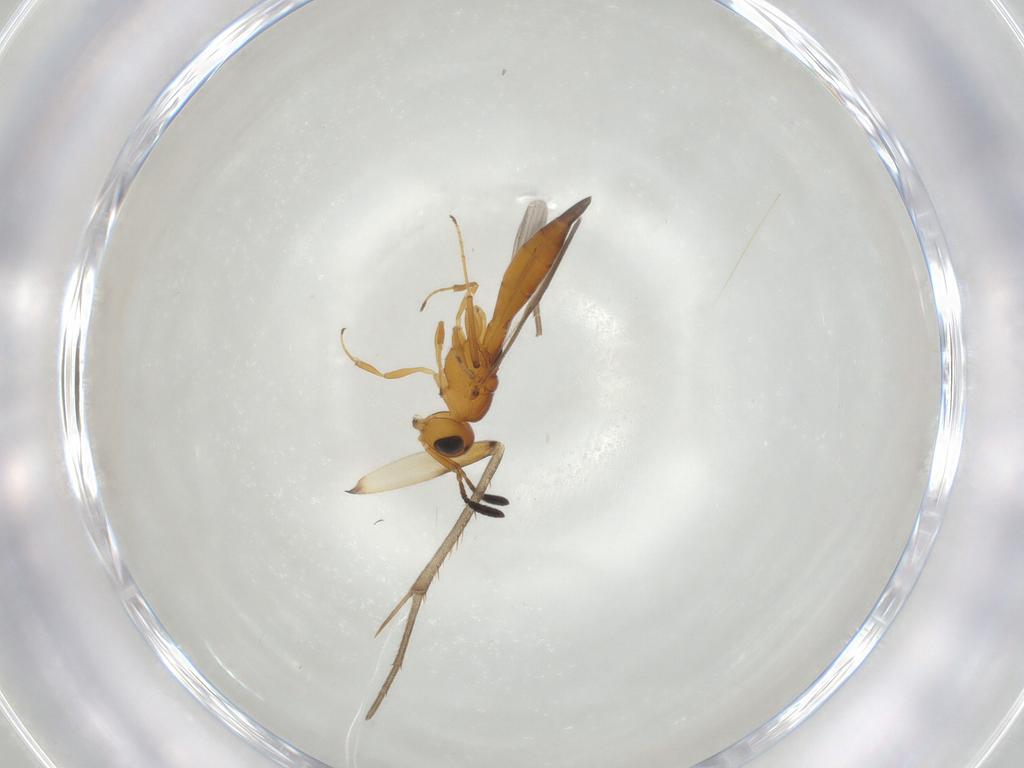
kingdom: Animalia
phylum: Arthropoda
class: Insecta
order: Hymenoptera
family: Scelionidae
